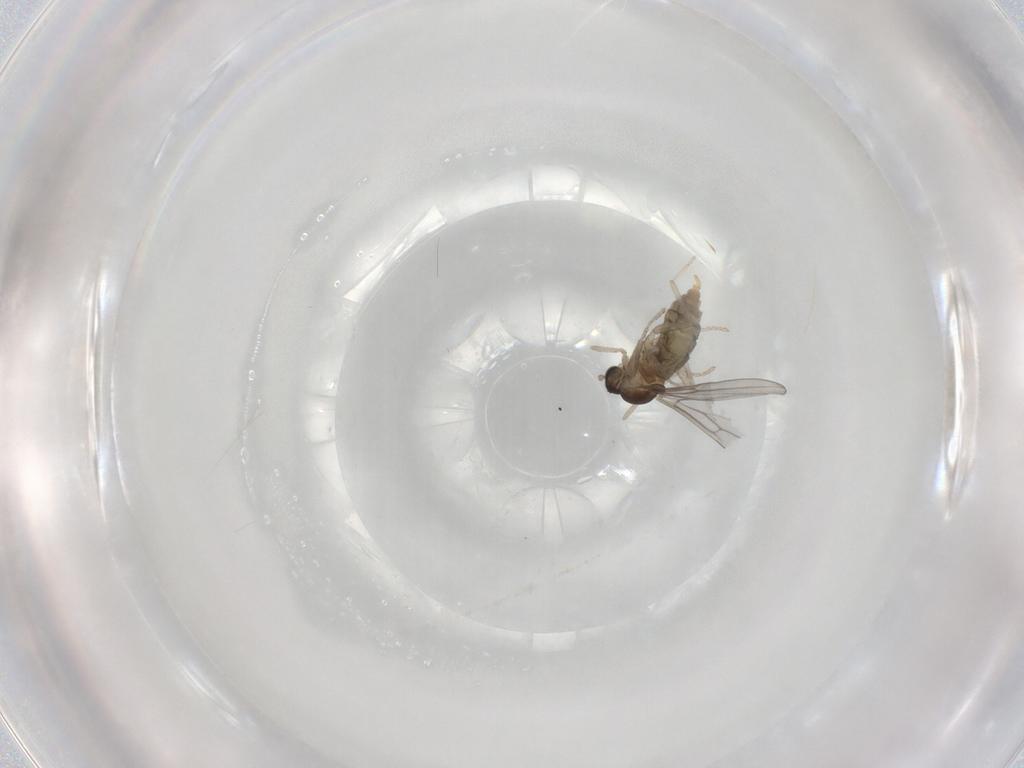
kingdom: Animalia
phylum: Arthropoda
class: Insecta
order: Diptera
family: Cecidomyiidae
